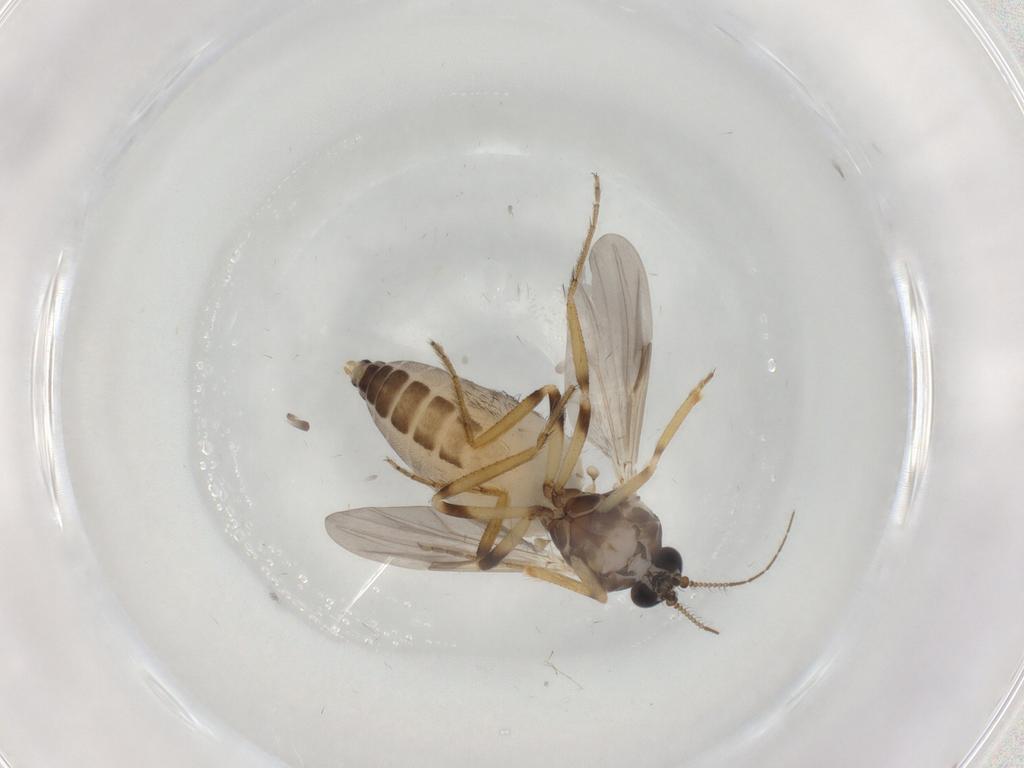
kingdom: Animalia
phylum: Arthropoda
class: Insecta
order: Diptera
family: Ceratopogonidae
